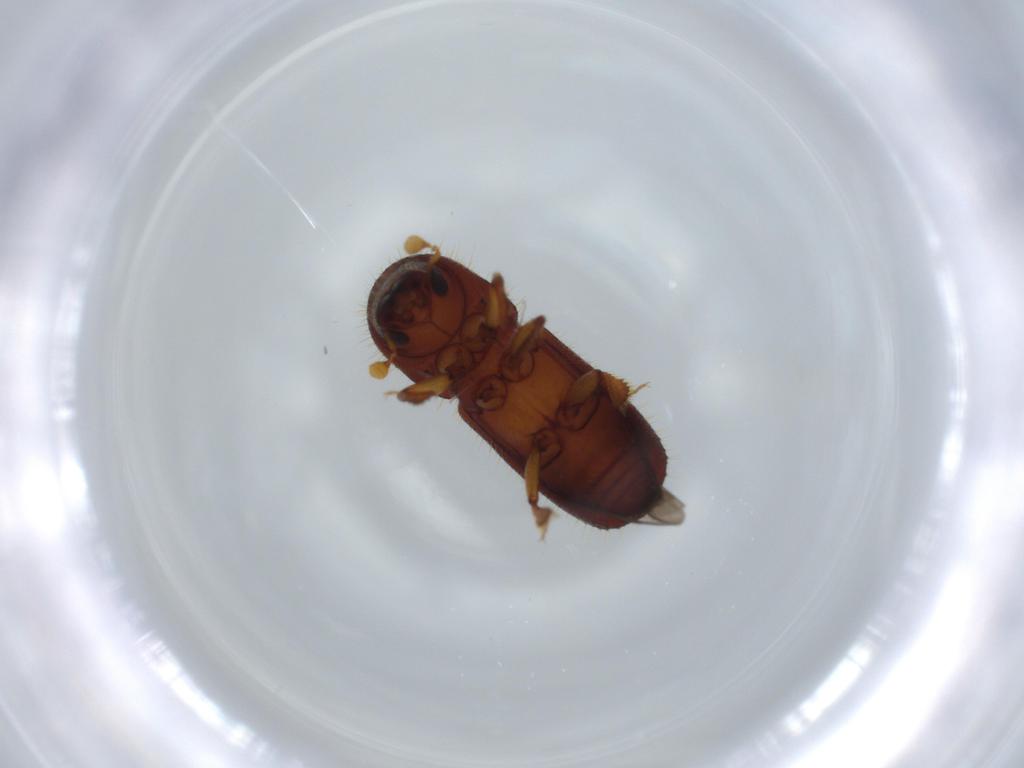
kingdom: Animalia
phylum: Arthropoda
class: Insecta
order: Coleoptera
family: Curculionidae
